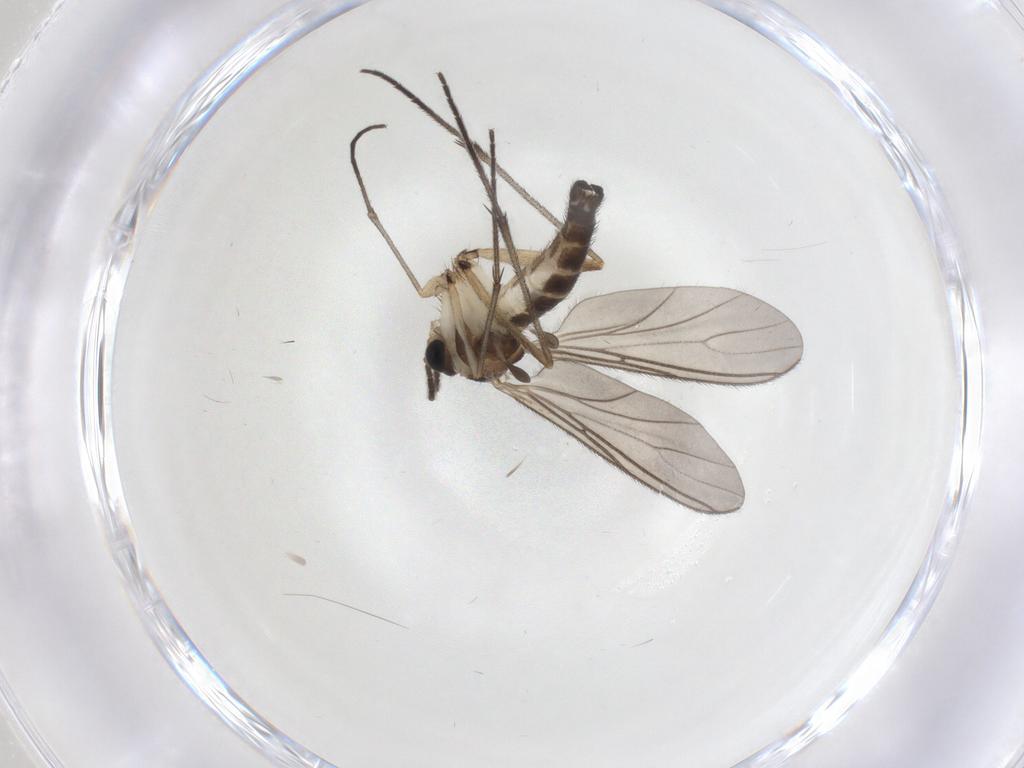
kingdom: Animalia
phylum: Arthropoda
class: Insecta
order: Diptera
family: Sciaridae
